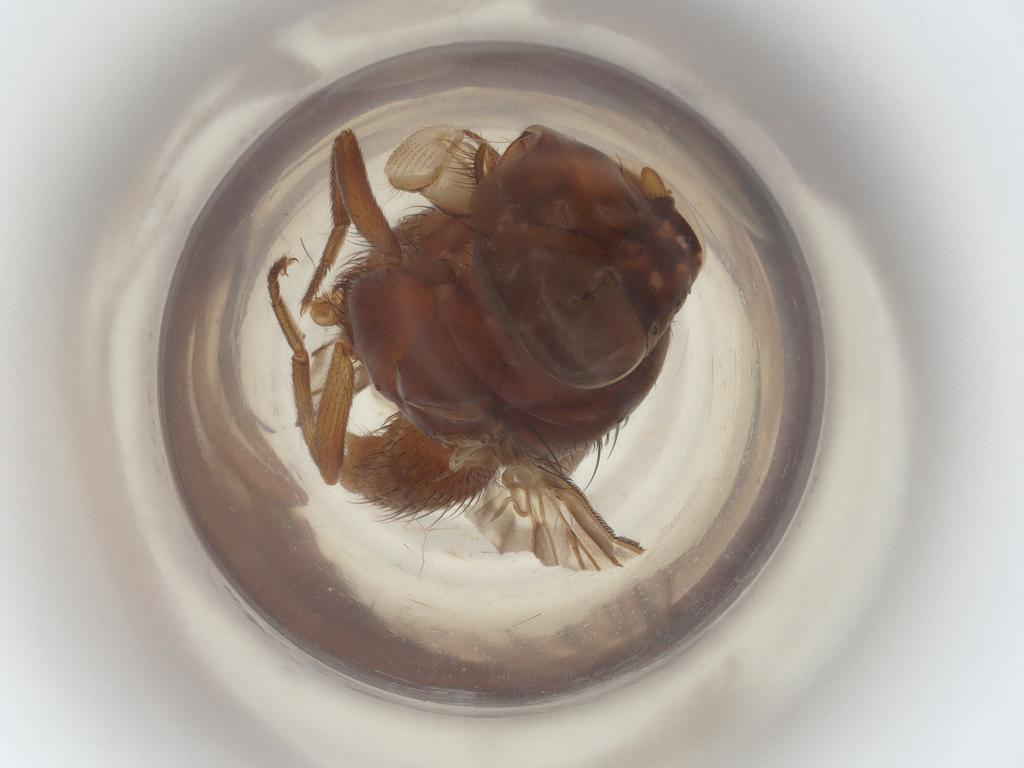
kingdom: Animalia
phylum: Arthropoda
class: Insecta
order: Diptera
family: Ceratopogonidae
